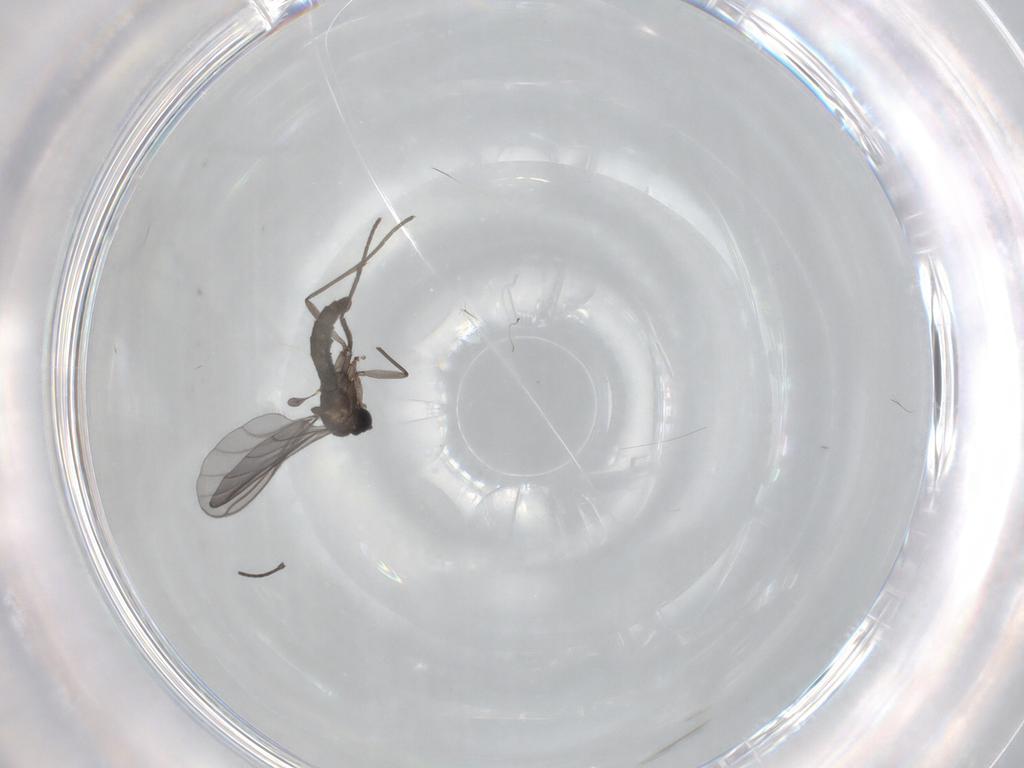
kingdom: Animalia
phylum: Arthropoda
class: Insecta
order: Diptera
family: Sciaridae
